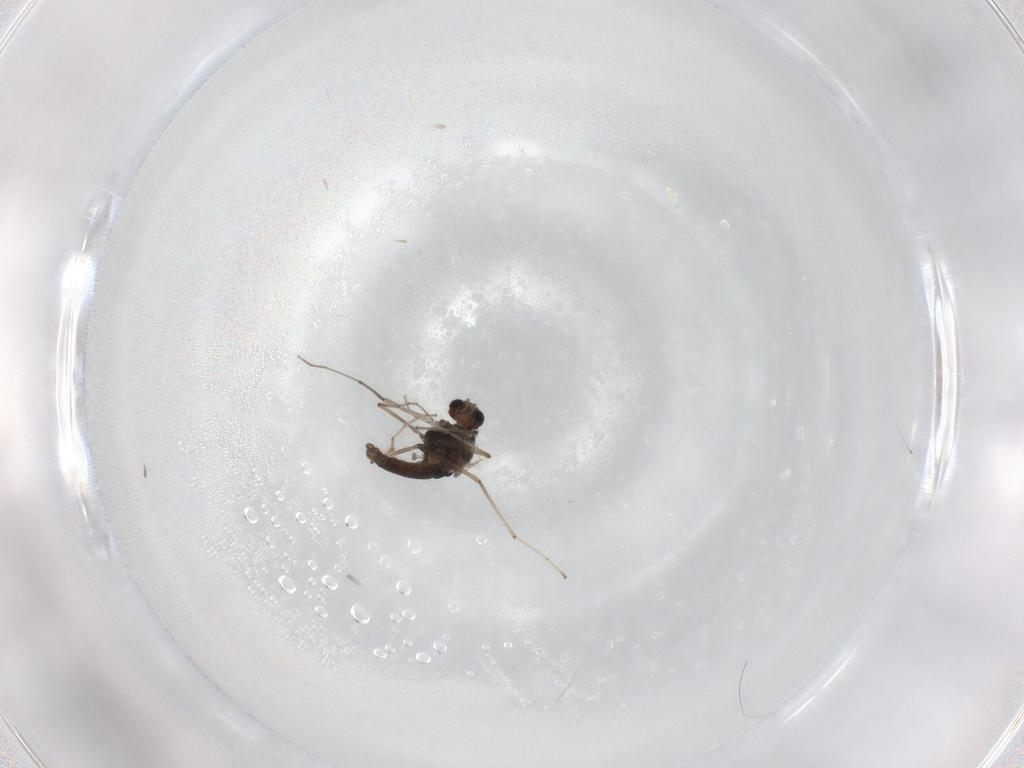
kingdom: Animalia
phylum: Arthropoda
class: Insecta
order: Diptera
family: Chironomidae
